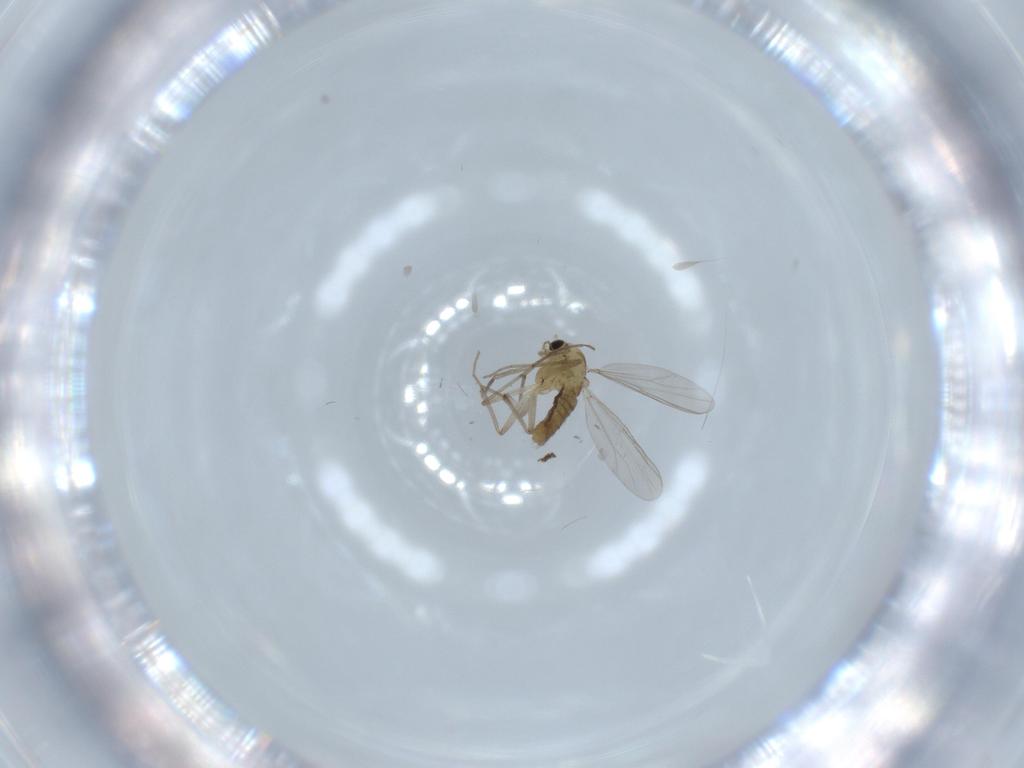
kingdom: Animalia
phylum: Arthropoda
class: Insecta
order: Diptera
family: Chironomidae
